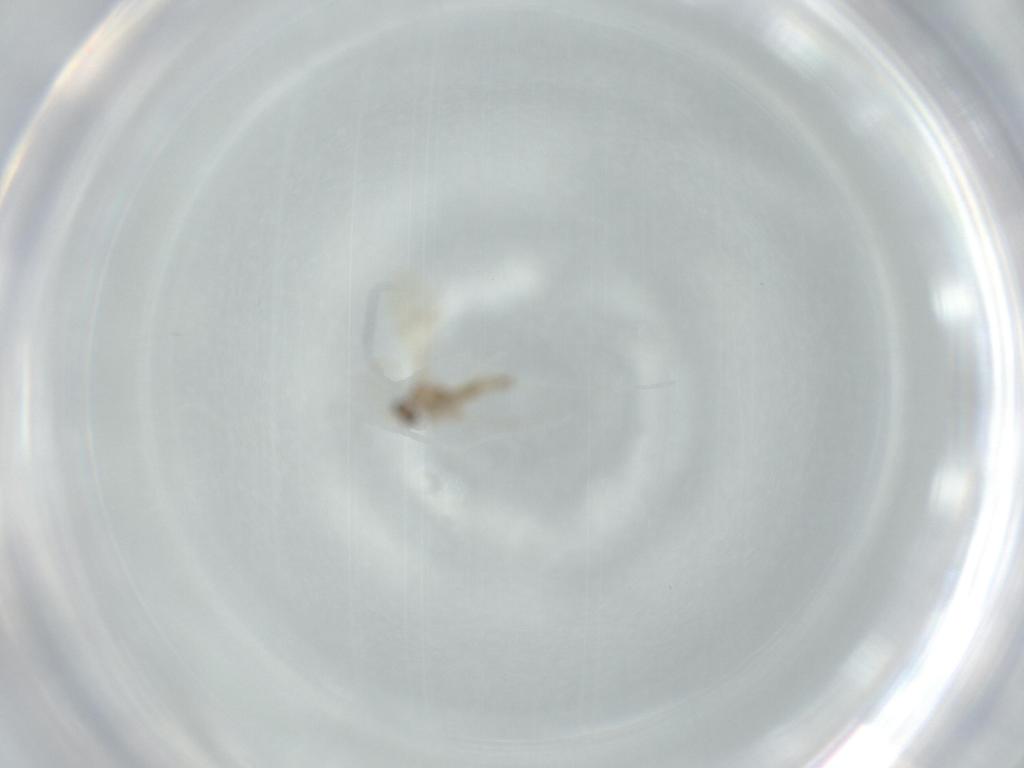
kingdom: Animalia
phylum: Arthropoda
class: Insecta
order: Diptera
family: Cecidomyiidae
